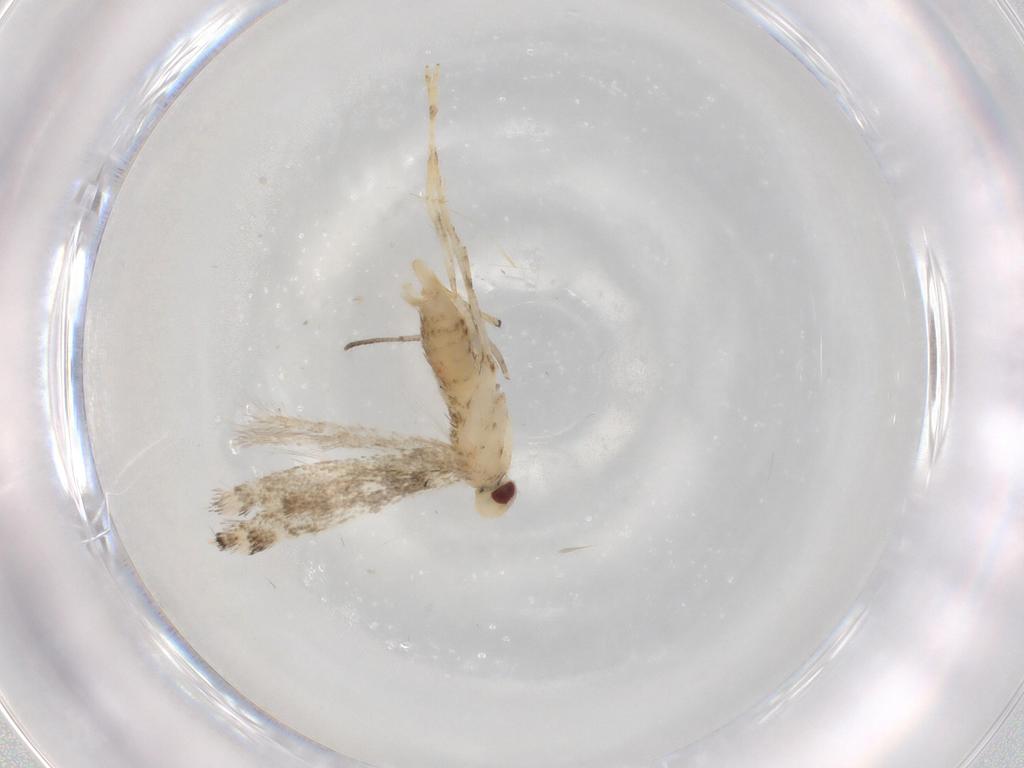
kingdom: Animalia
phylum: Arthropoda
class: Insecta
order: Lepidoptera
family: Gracillariidae
